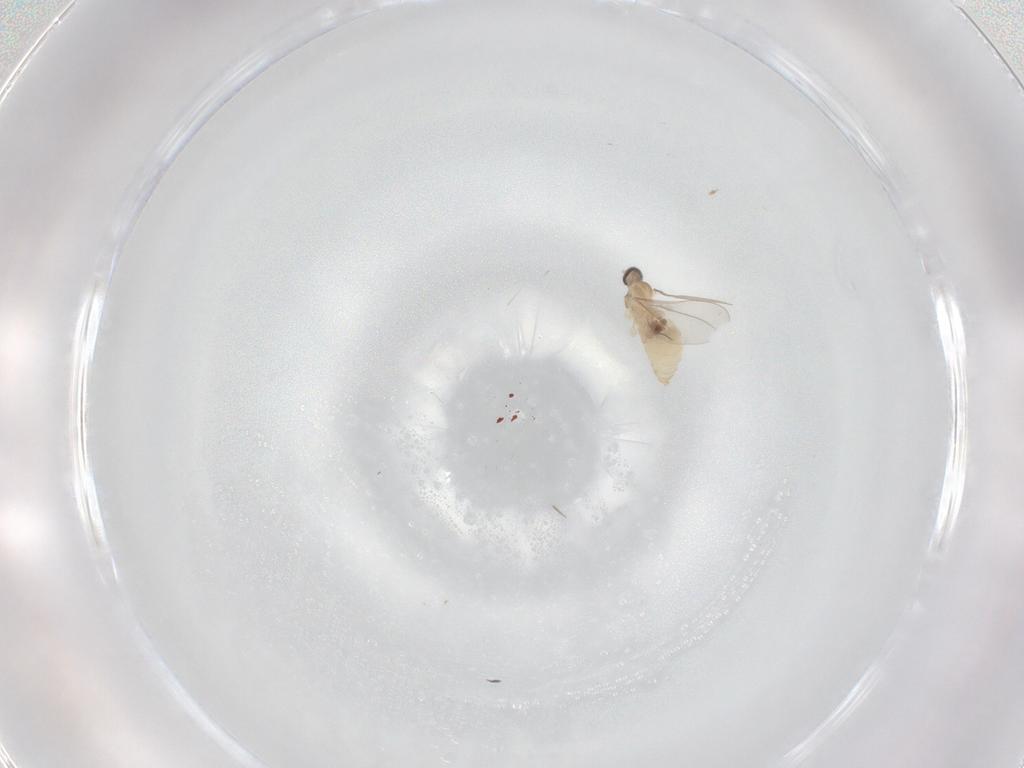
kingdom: Animalia
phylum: Arthropoda
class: Insecta
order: Diptera
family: Cecidomyiidae
